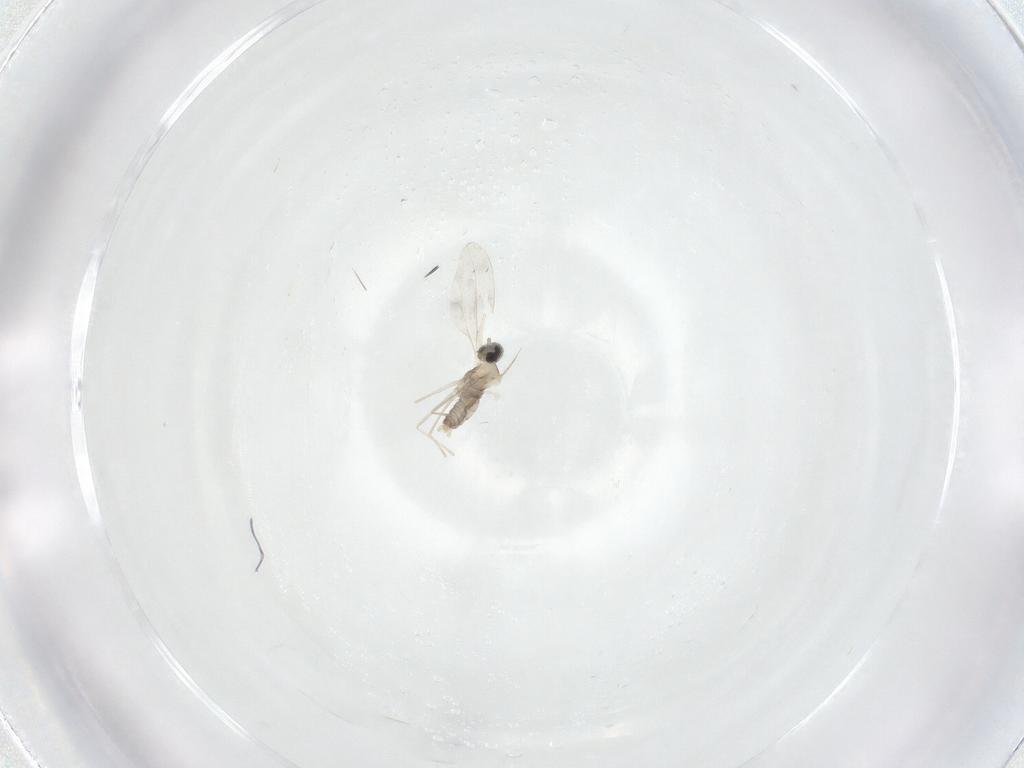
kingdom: Animalia
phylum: Arthropoda
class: Insecta
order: Diptera
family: Cecidomyiidae
